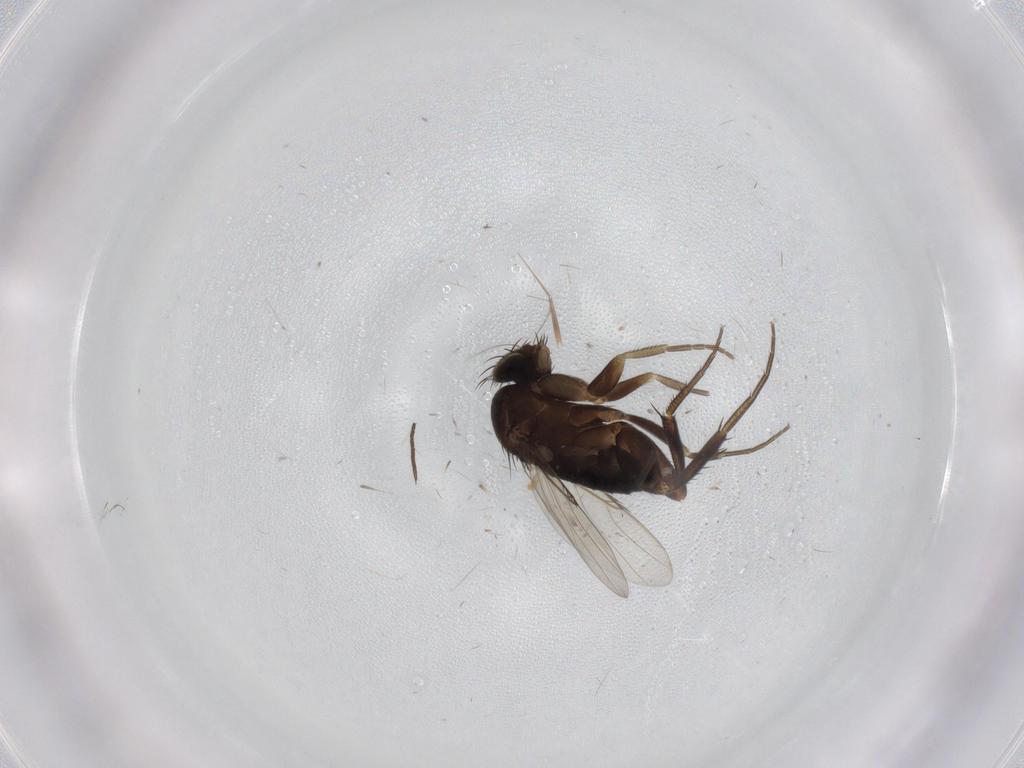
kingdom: Animalia
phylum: Arthropoda
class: Insecta
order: Diptera
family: Phoridae
